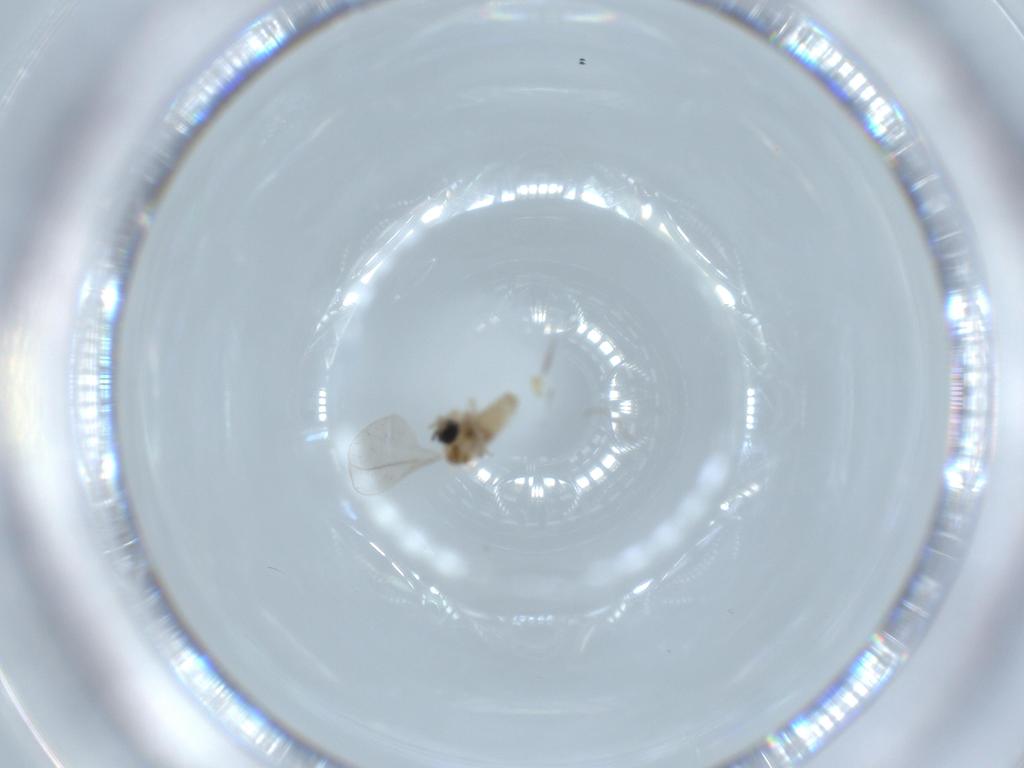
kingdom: Animalia
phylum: Arthropoda
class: Insecta
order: Diptera
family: Cecidomyiidae
